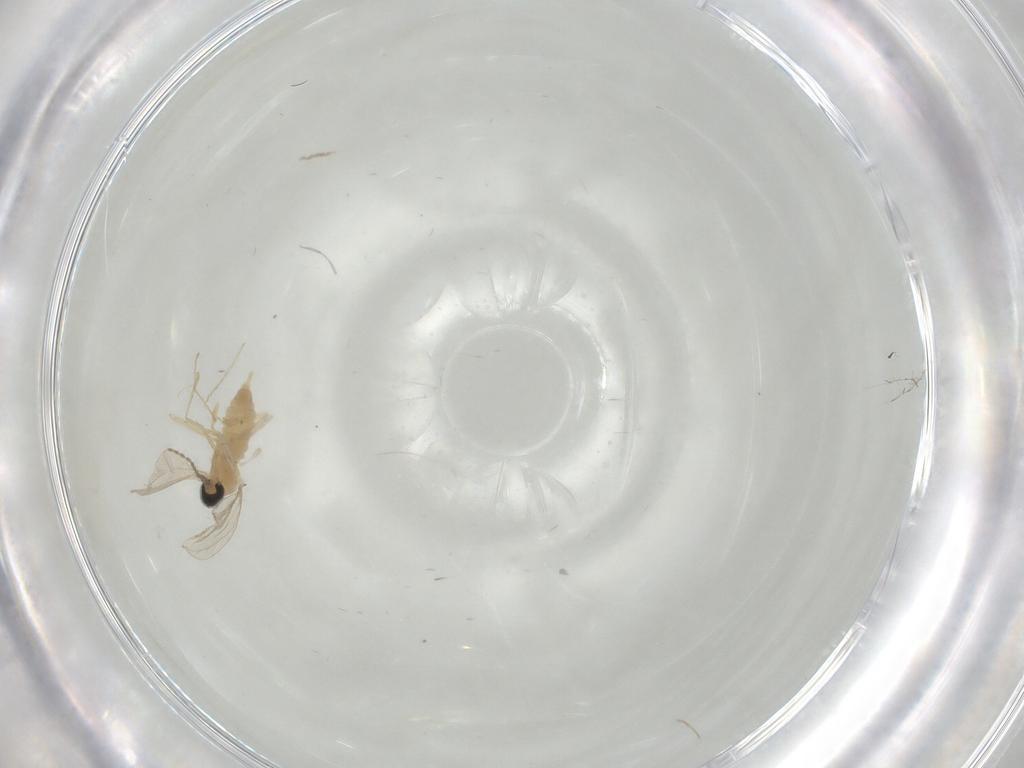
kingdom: Animalia
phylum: Arthropoda
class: Insecta
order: Diptera
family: Cecidomyiidae
